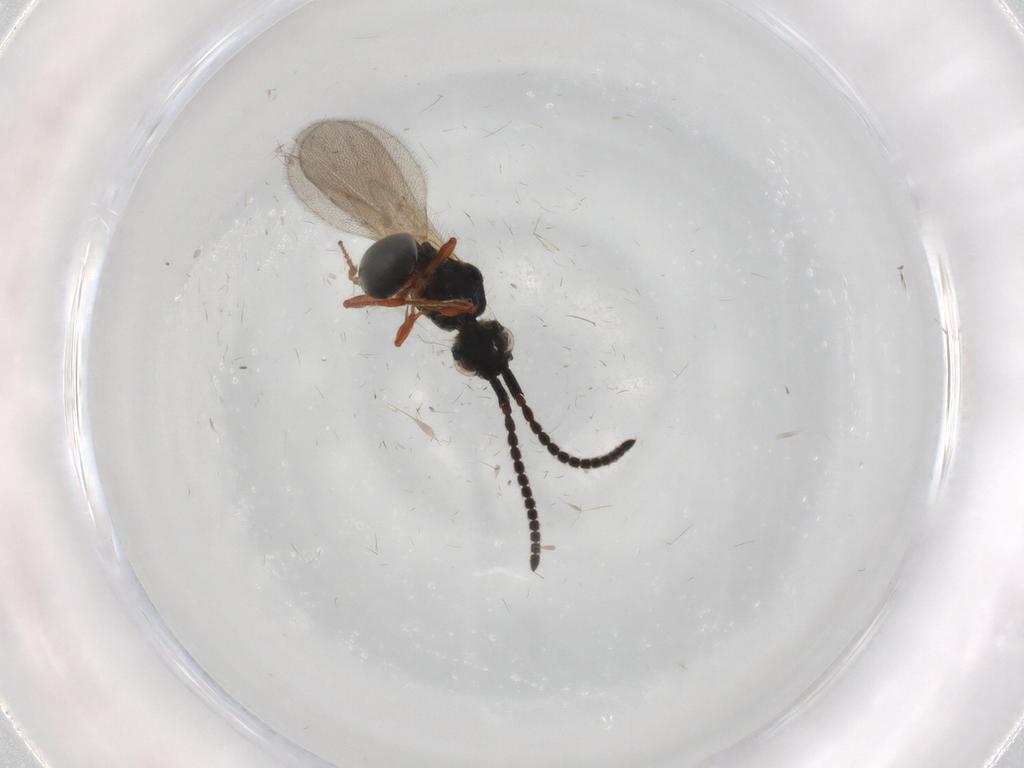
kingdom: Animalia
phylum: Arthropoda
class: Insecta
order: Hymenoptera
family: Diapriidae
